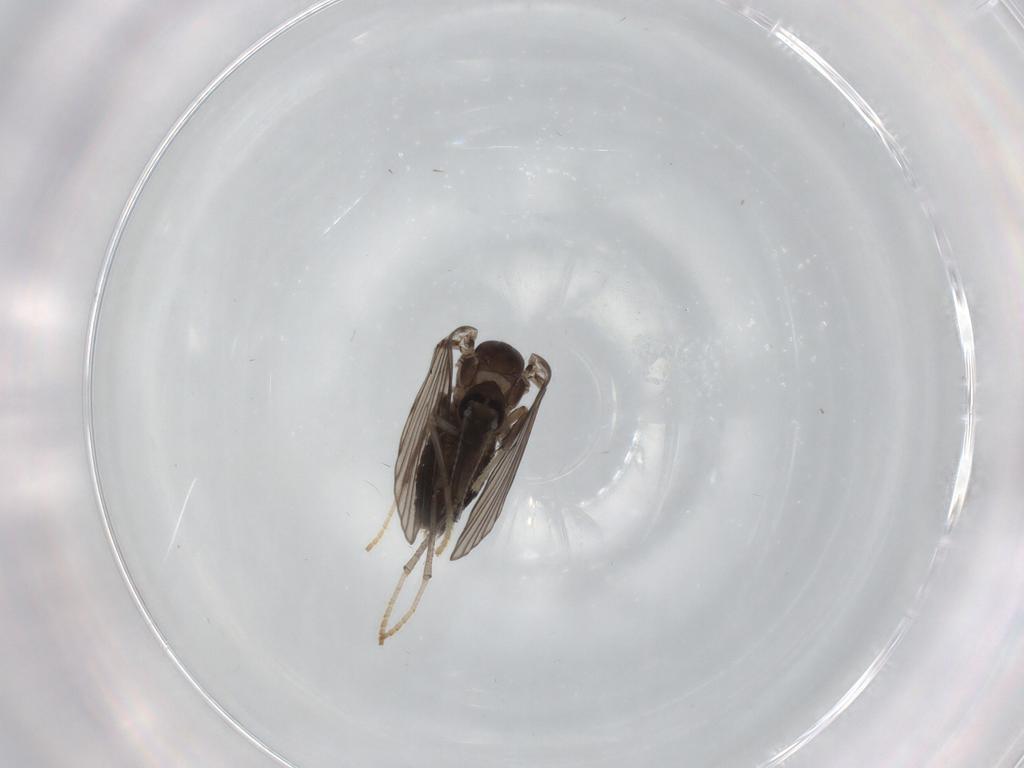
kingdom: Animalia
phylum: Arthropoda
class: Insecta
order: Diptera
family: Psychodidae
